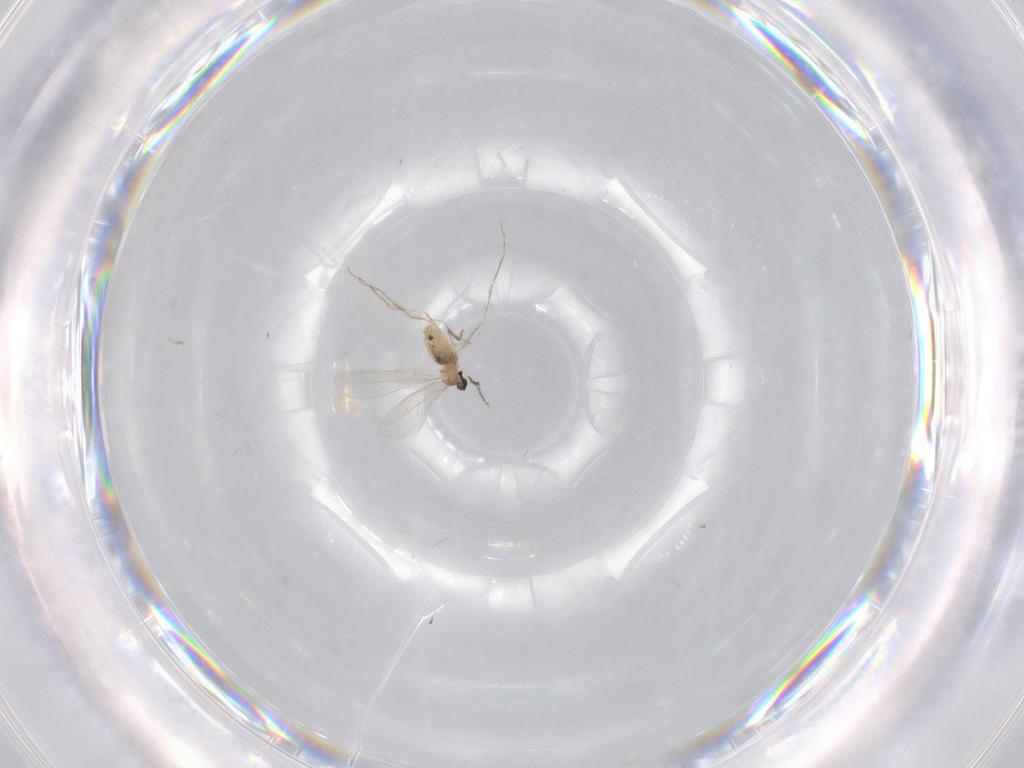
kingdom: Animalia
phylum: Arthropoda
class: Insecta
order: Diptera
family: Cecidomyiidae
